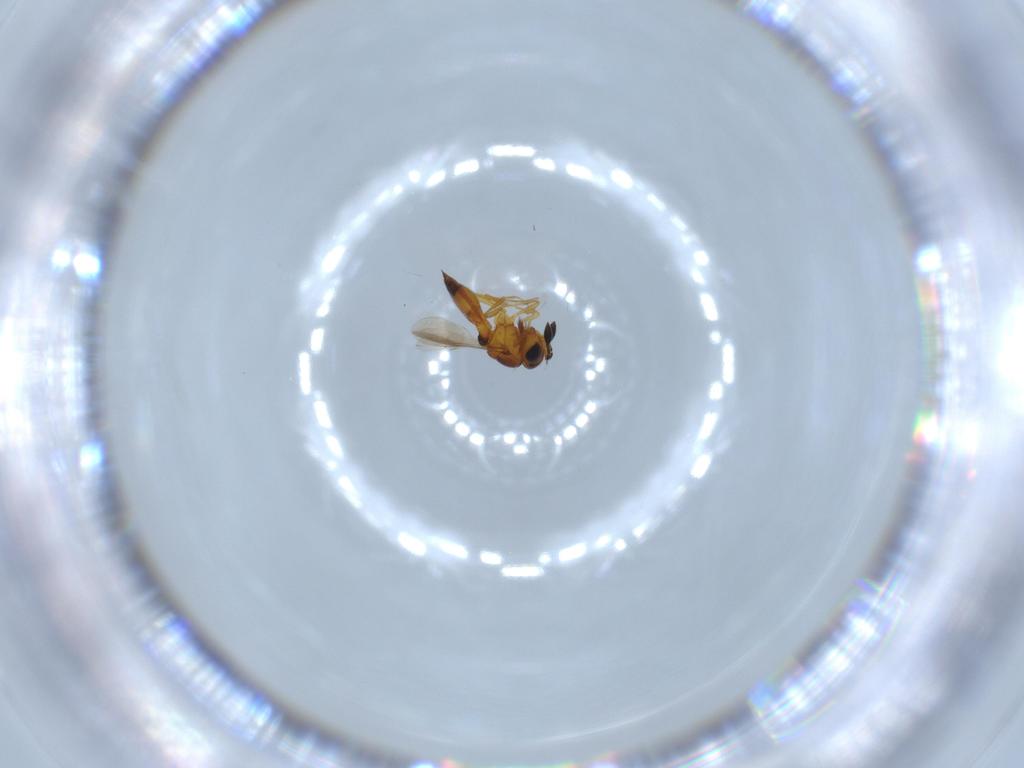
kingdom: Animalia
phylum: Arthropoda
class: Insecta
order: Hymenoptera
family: Scelionidae
